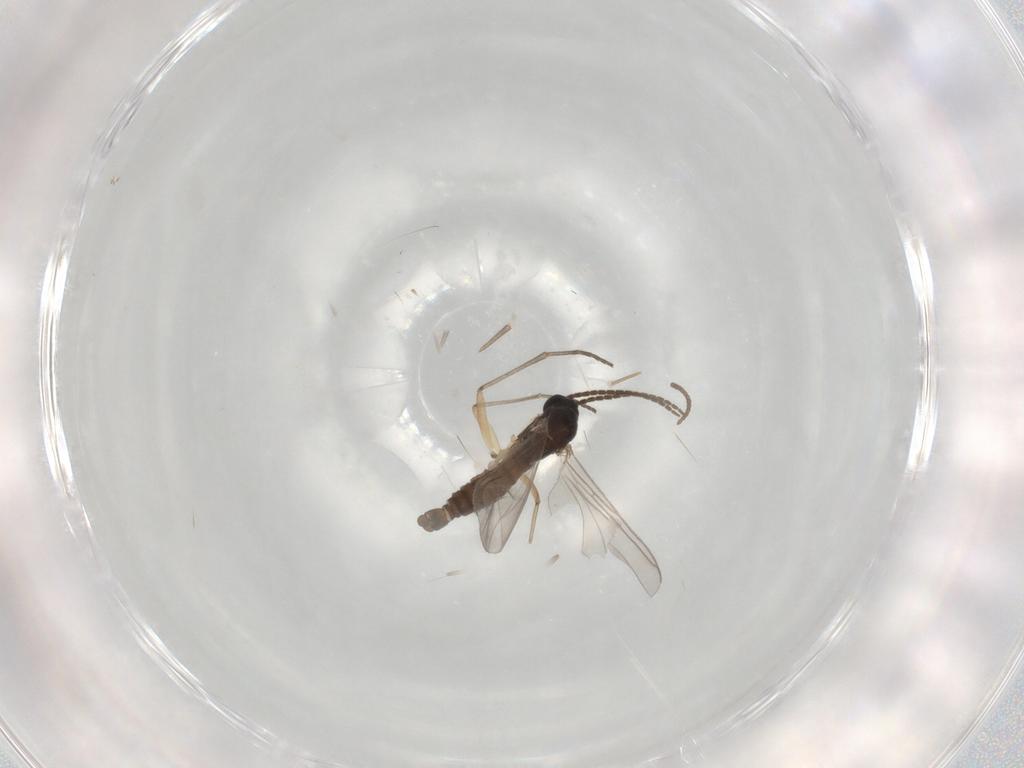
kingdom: Animalia
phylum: Arthropoda
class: Insecta
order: Diptera
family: Sciaridae
